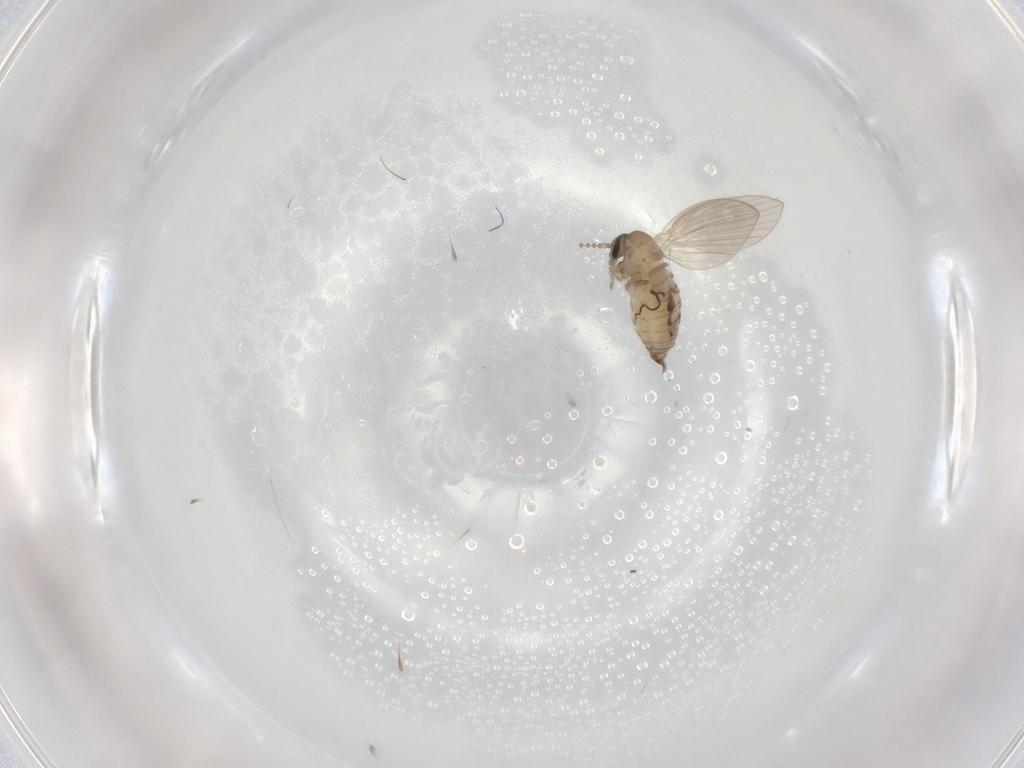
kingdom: Animalia
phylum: Arthropoda
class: Insecta
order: Diptera
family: Psychodidae
